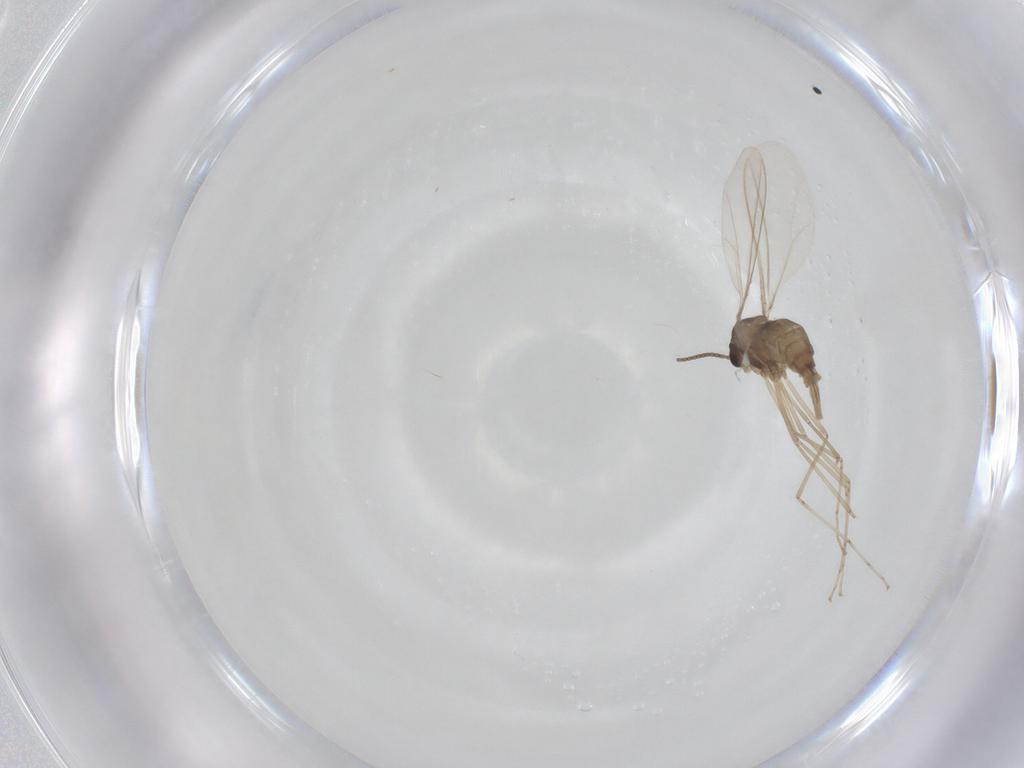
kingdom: Animalia
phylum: Arthropoda
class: Insecta
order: Diptera
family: Cecidomyiidae
